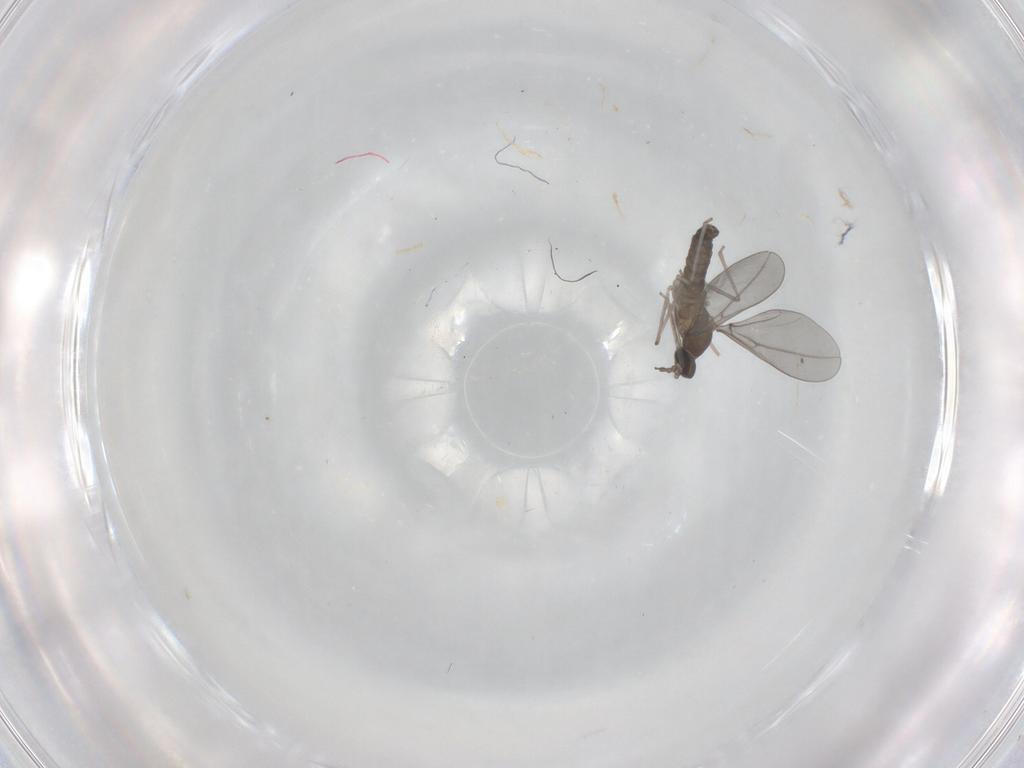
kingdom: Animalia
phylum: Arthropoda
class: Insecta
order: Diptera
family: Cecidomyiidae
